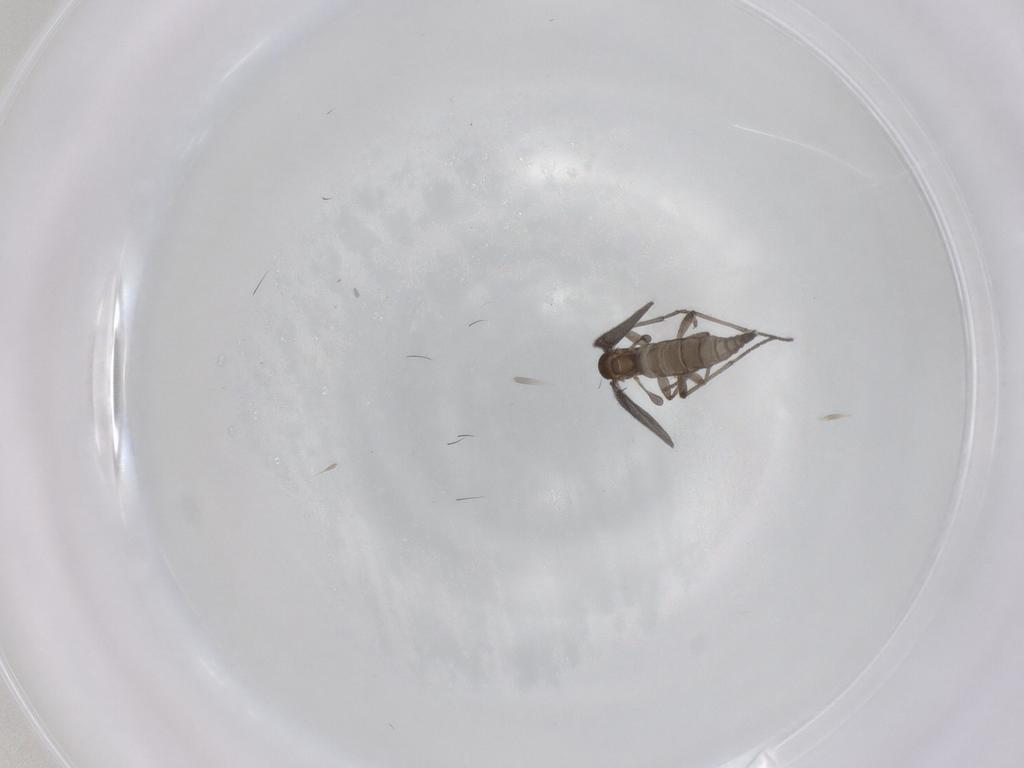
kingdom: Animalia
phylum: Arthropoda
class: Insecta
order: Diptera
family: Sciaridae
